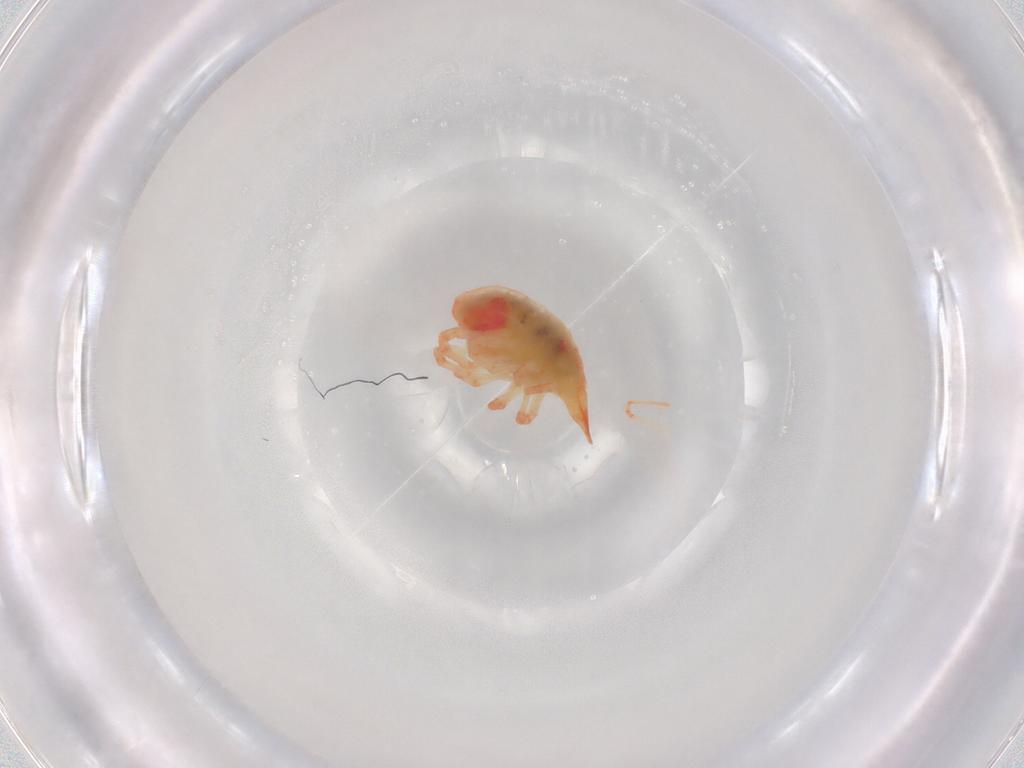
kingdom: Animalia
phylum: Arthropoda
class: Arachnida
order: Trombidiformes
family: Bdellidae
